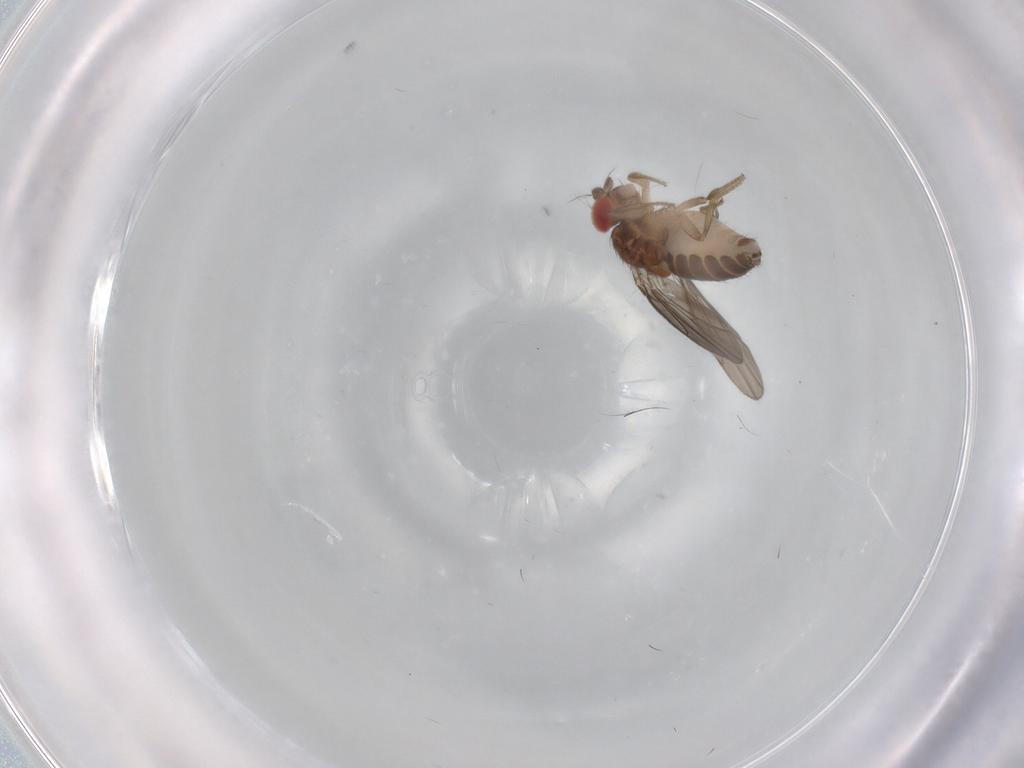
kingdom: Animalia
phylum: Arthropoda
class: Insecta
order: Diptera
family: Drosophilidae
